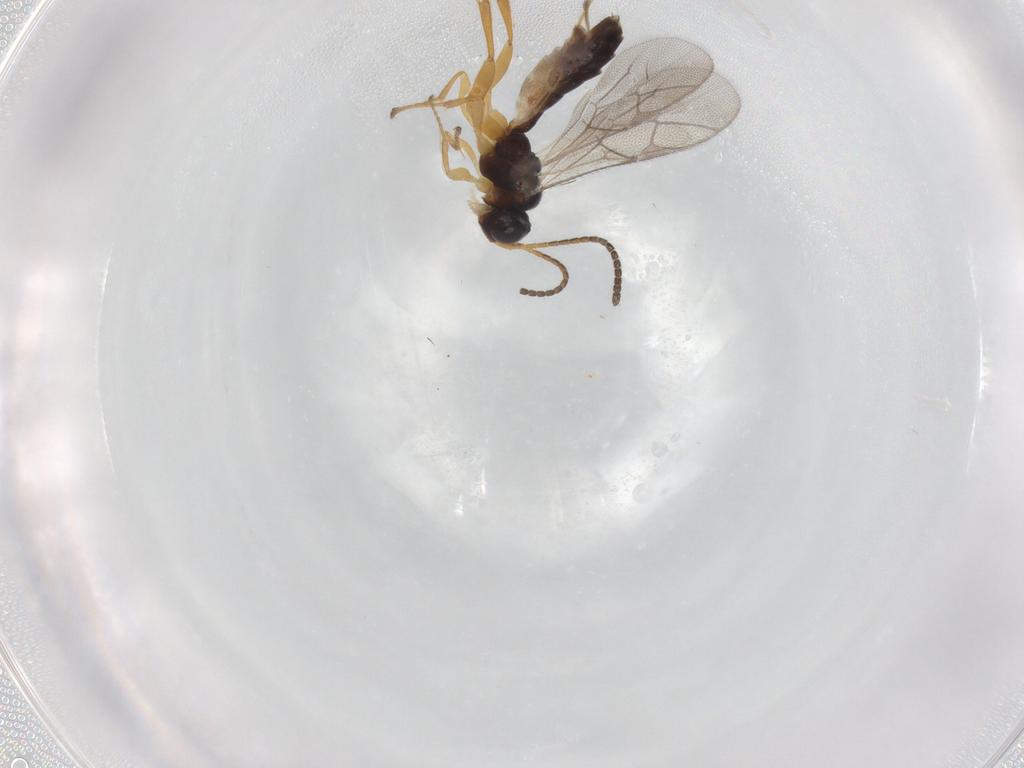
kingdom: Animalia
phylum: Arthropoda
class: Insecta
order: Hymenoptera
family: Ichneumonidae
